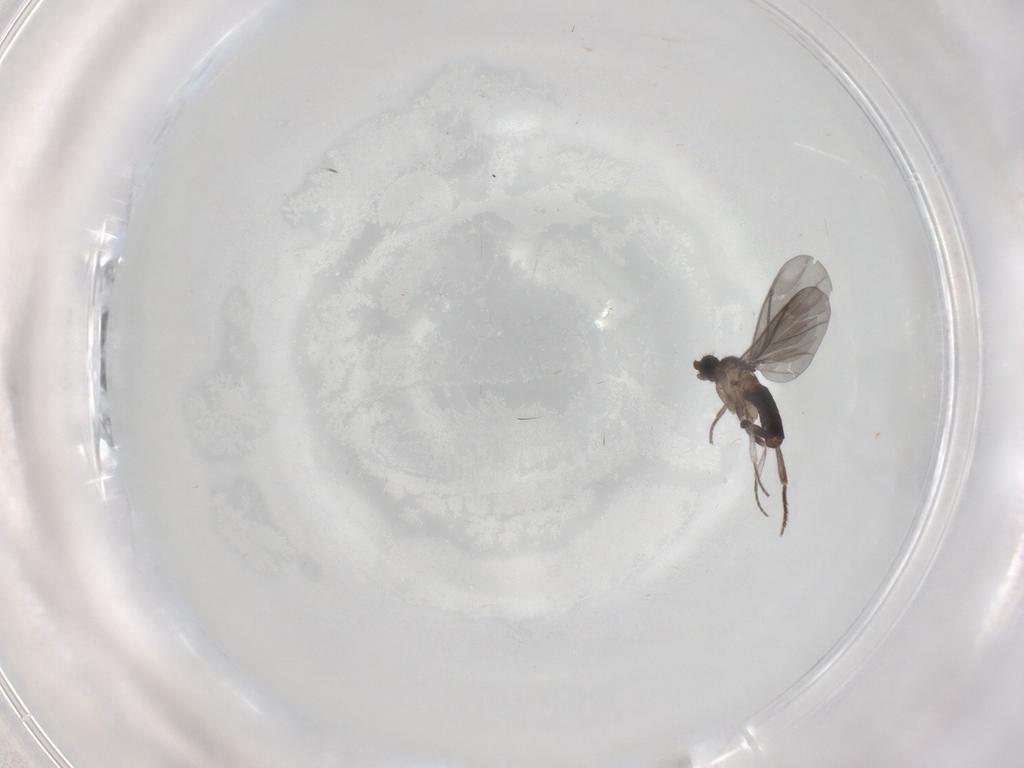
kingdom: Animalia
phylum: Arthropoda
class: Insecta
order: Diptera
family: Phoridae
